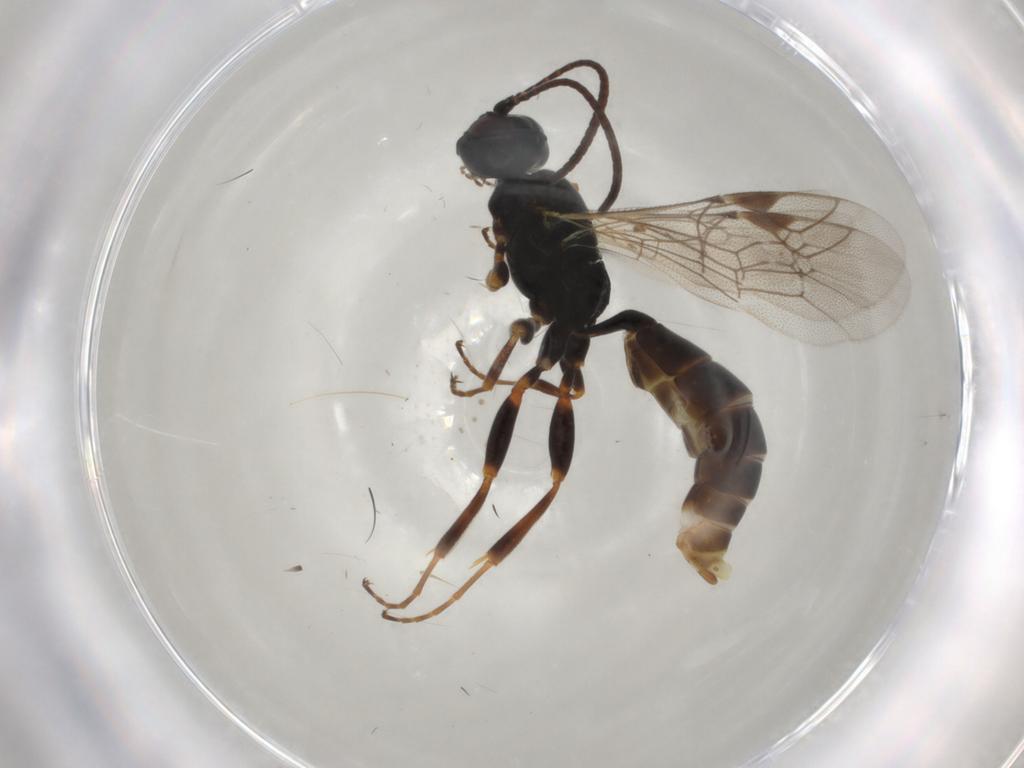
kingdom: Animalia
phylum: Arthropoda
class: Insecta
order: Hymenoptera
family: Ichneumonidae
